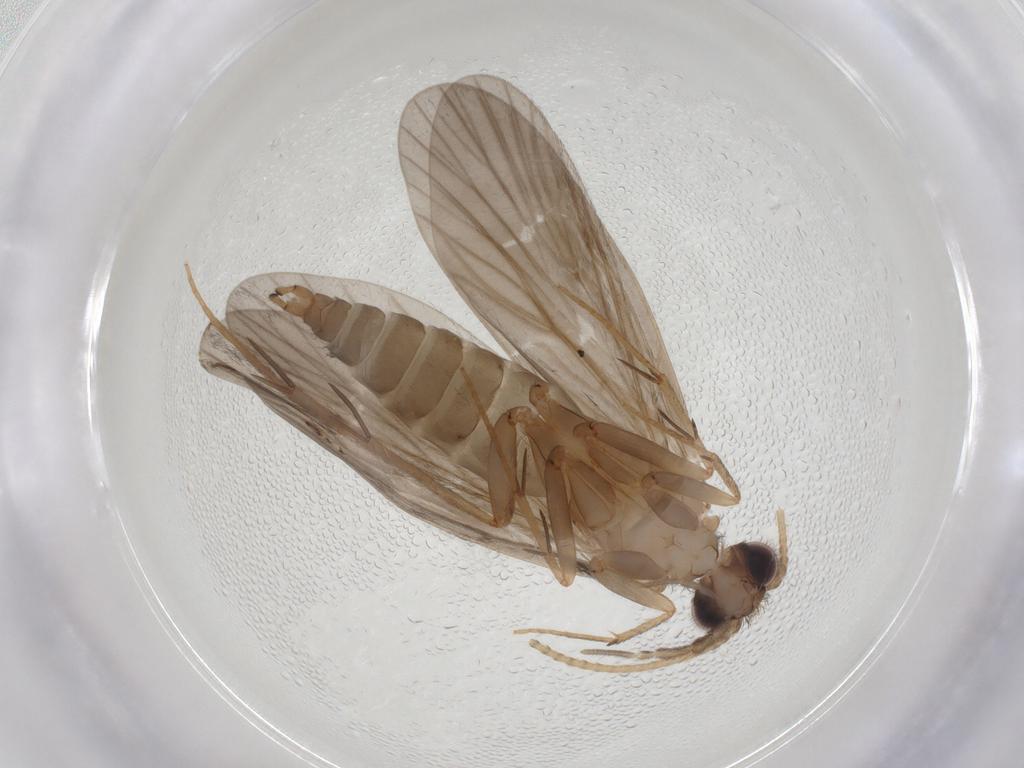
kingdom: Animalia
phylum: Arthropoda
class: Insecta
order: Trichoptera
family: Philopotamidae
